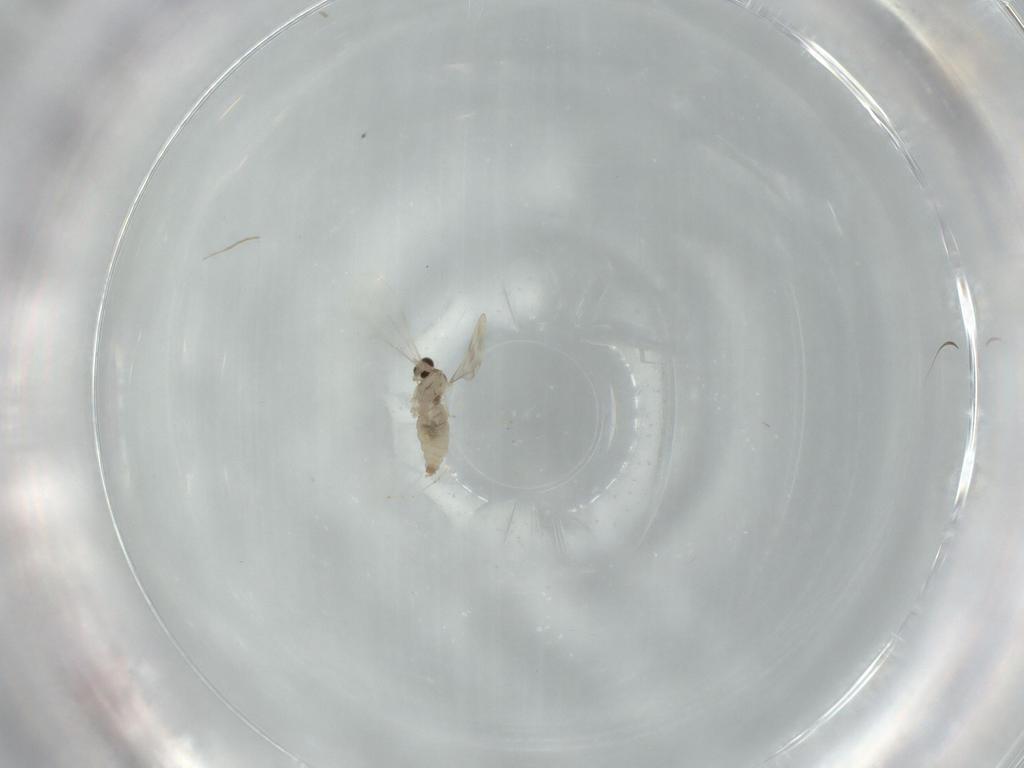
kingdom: Animalia
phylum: Arthropoda
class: Insecta
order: Diptera
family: Cecidomyiidae
